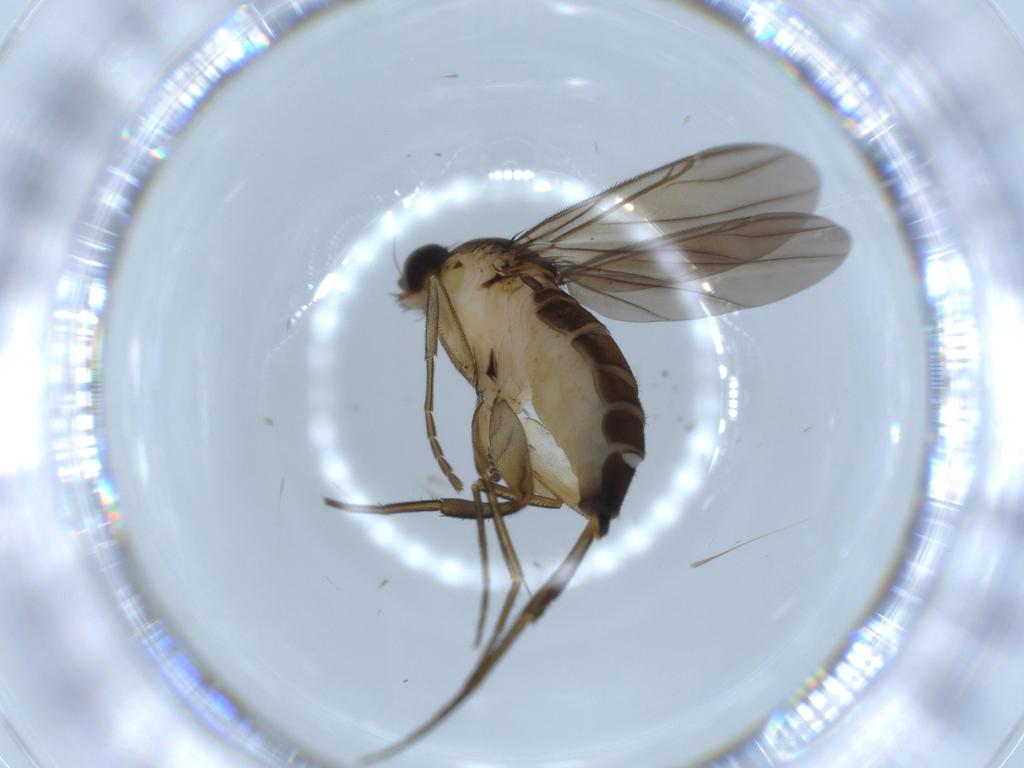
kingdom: Animalia
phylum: Arthropoda
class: Insecta
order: Diptera
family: Phoridae
